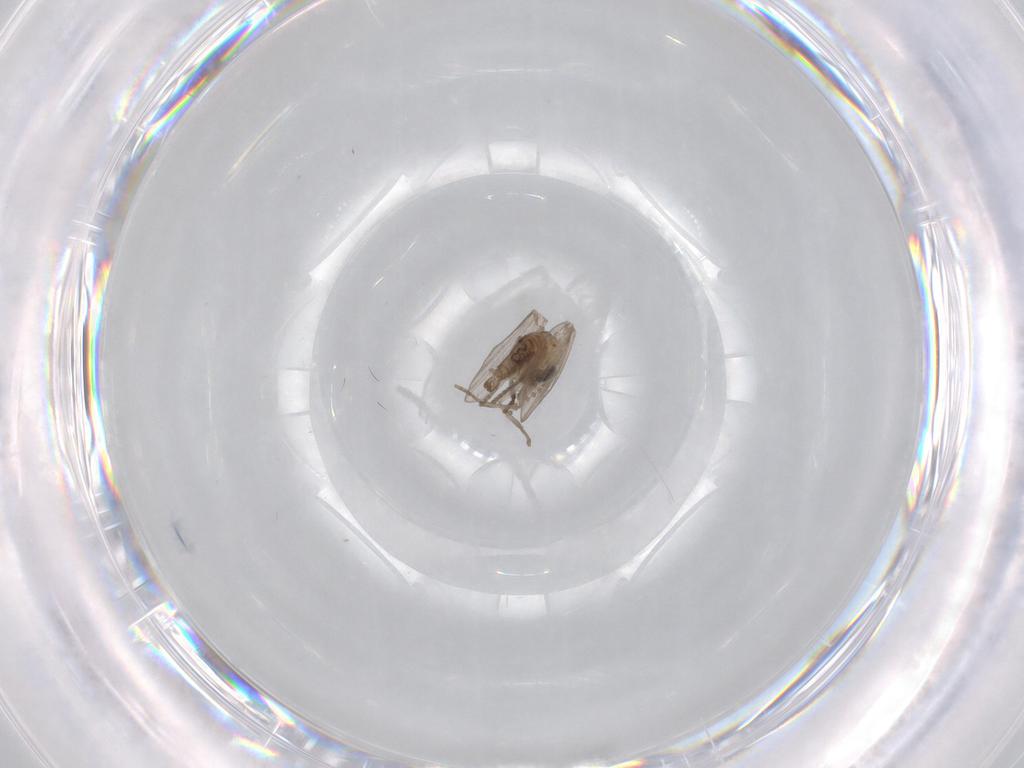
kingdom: Animalia
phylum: Arthropoda
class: Insecta
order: Diptera
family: Psychodidae
